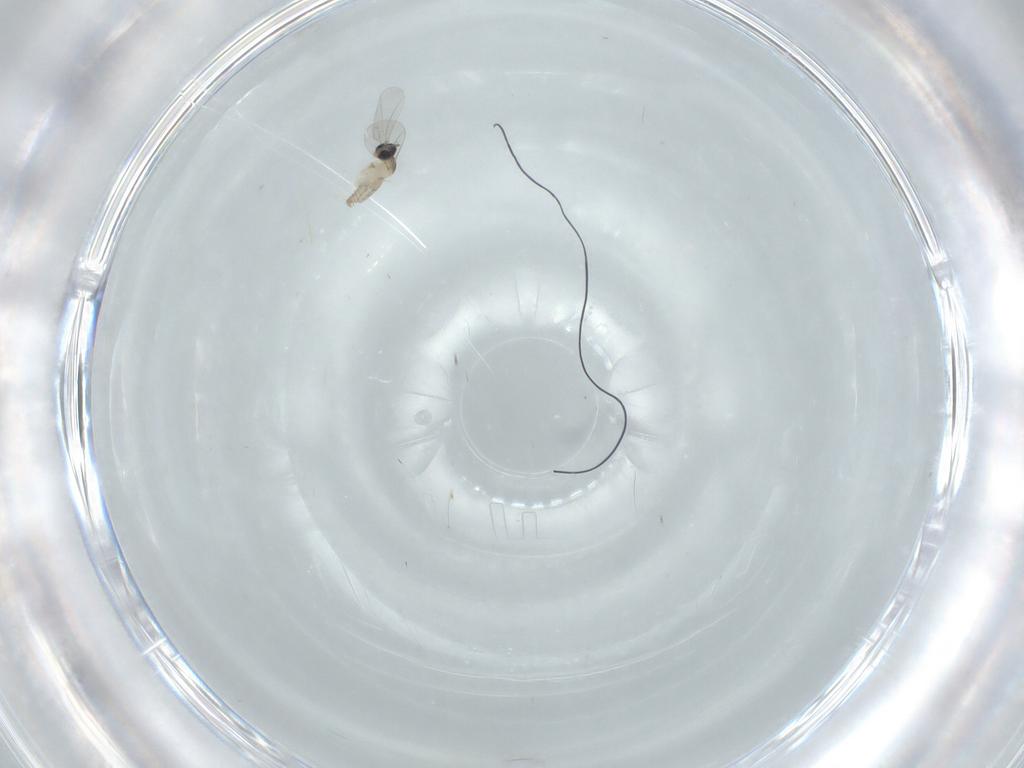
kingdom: Animalia
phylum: Arthropoda
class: Insecta
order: Diptera
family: Cecidomyiidae
